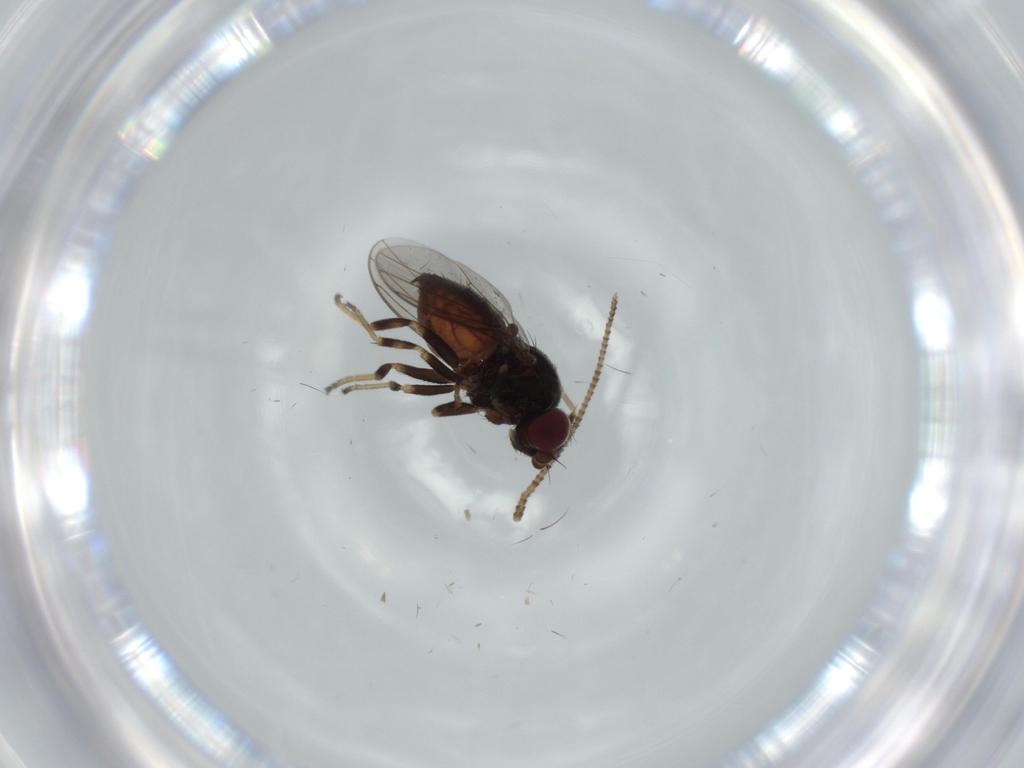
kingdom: Animalia
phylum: Arthropoda
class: Insecta
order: Diptera
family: Chloropidae
